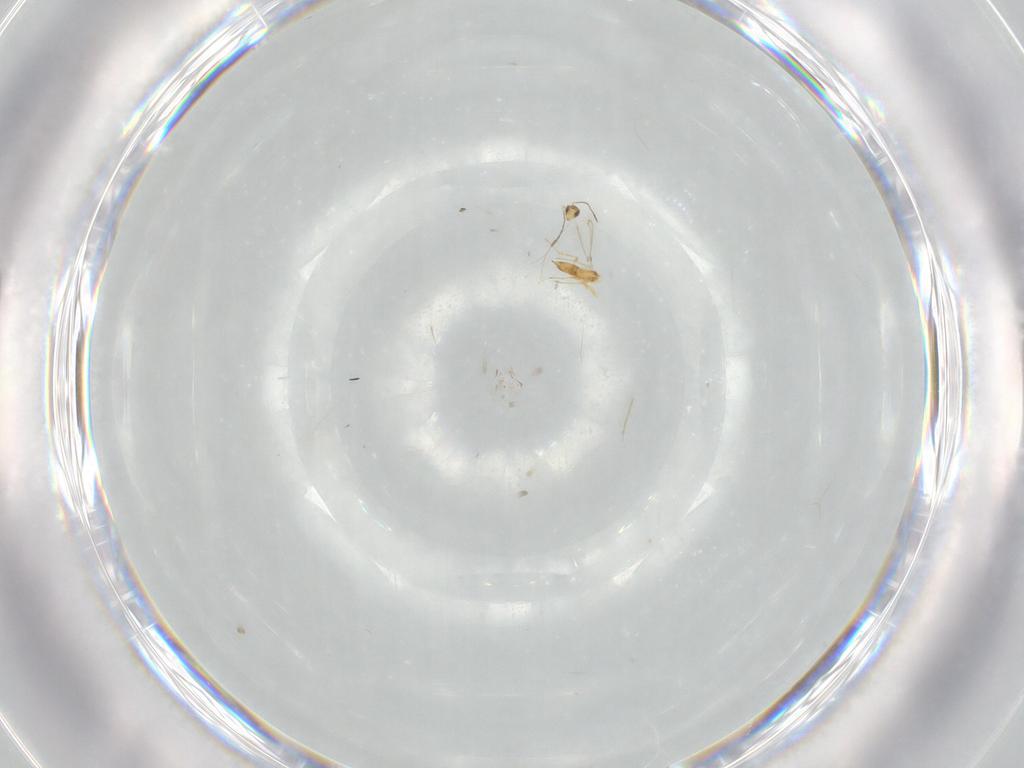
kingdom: Animalia
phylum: Arthropoda
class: Insecta
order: Hymenoptera
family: Mymaridae
